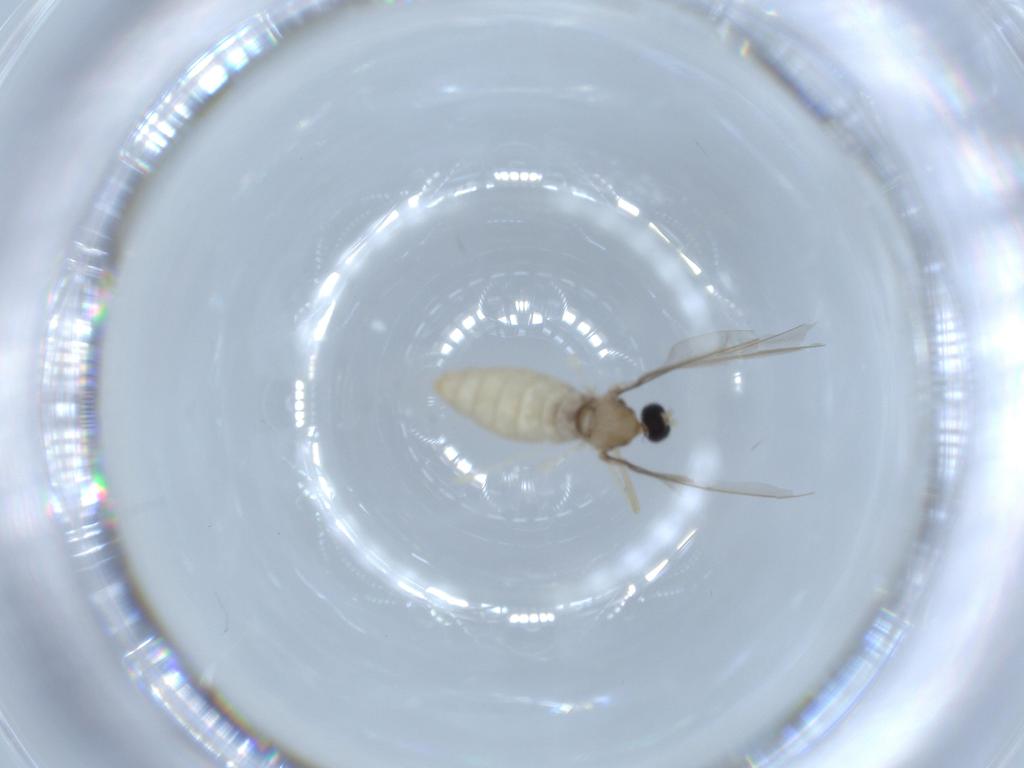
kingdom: Animalia
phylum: Arthropoda
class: Insecta
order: Diptera
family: Cecidomyiidae
